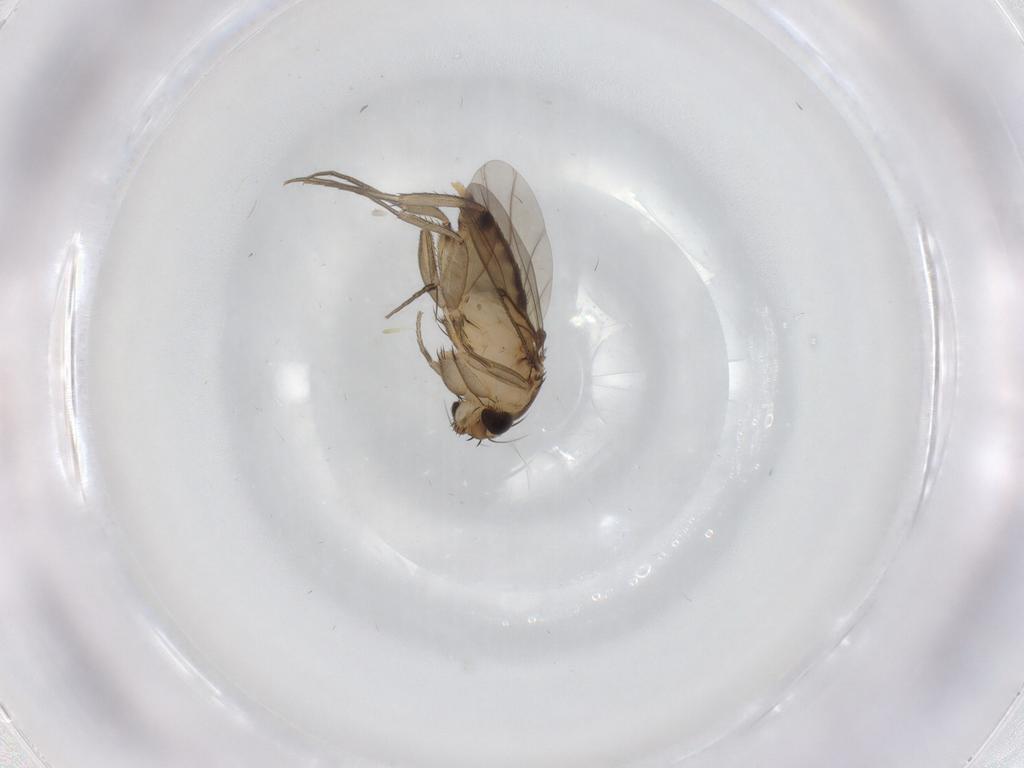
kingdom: Animalia
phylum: Arthropoda
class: Insecta
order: Diptera
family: Phoridae
